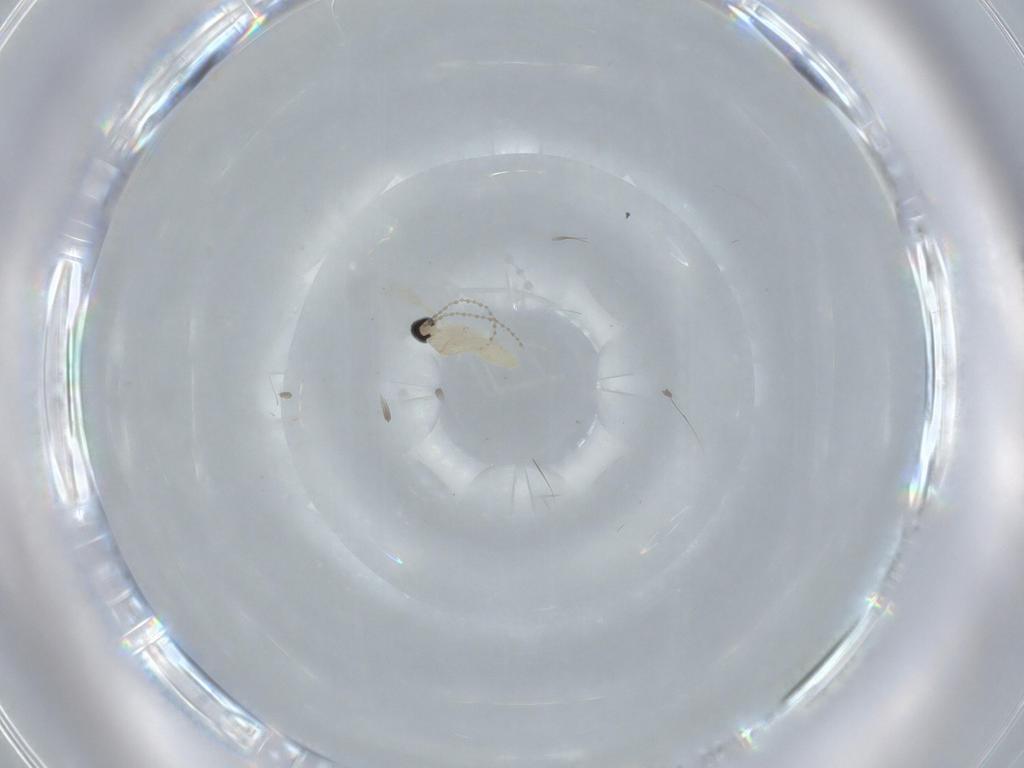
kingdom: Animalia
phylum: Arthropoda
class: Insecta
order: Diptera
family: Cecidomyiidae
